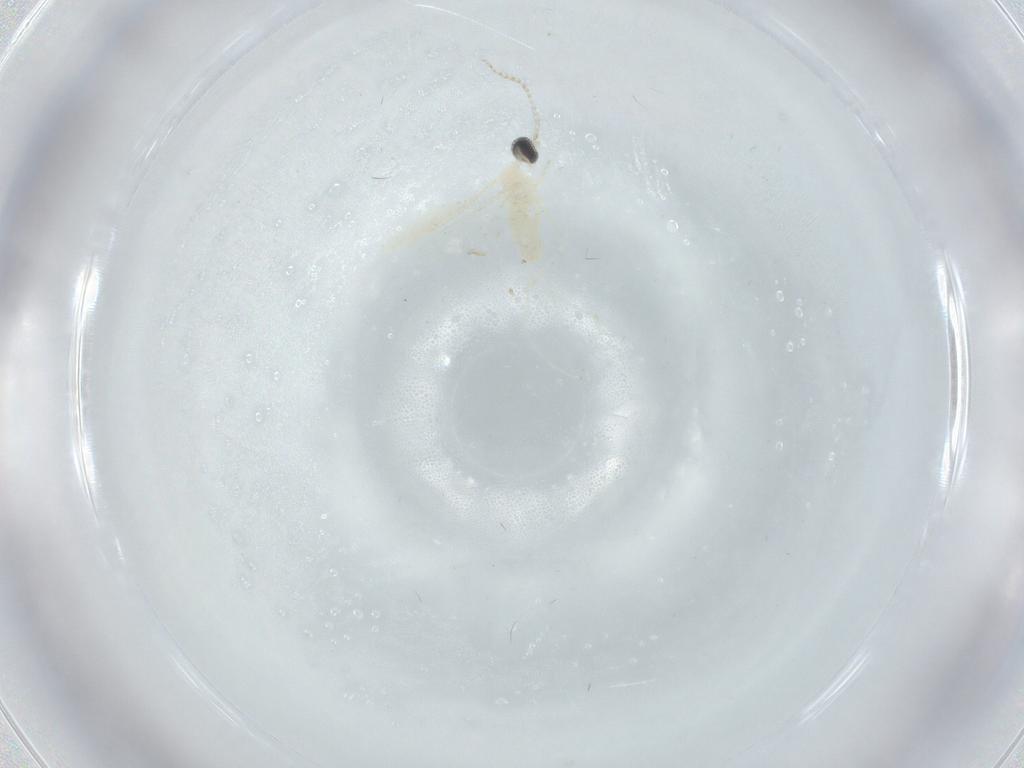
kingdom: Animalia
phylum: Arthropoda
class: Insecta
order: Diptera
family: Cecidomyiidae
